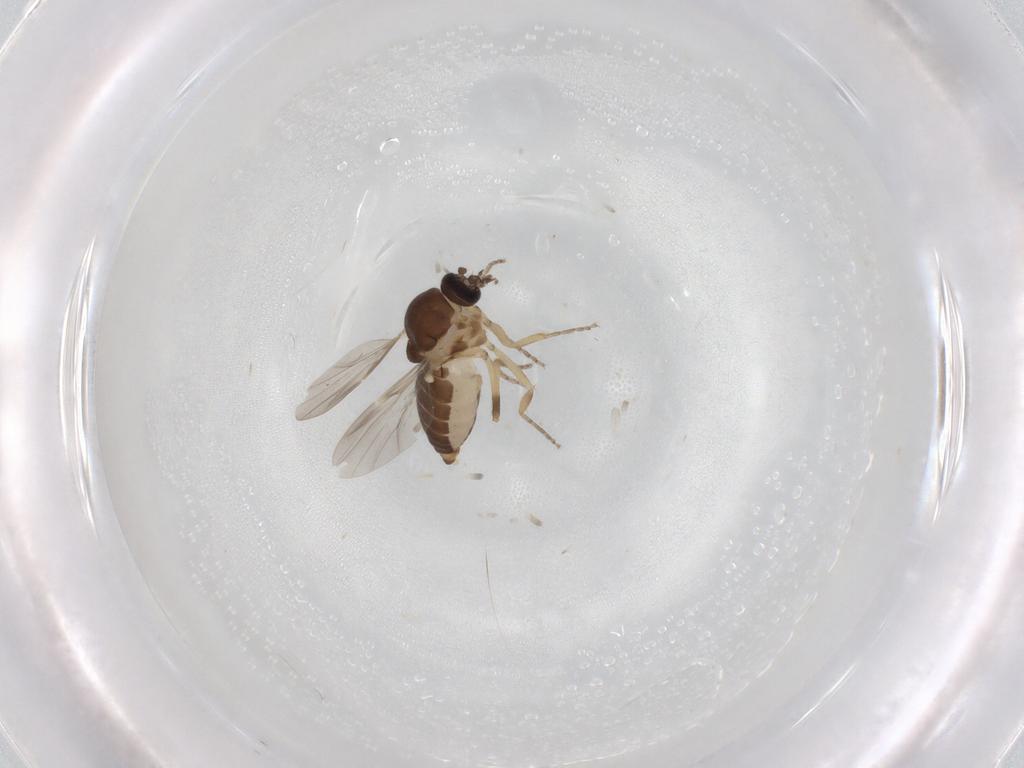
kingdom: Animalia
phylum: Arthropoda
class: Insecta
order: Diptera
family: Ceratopogonidae
